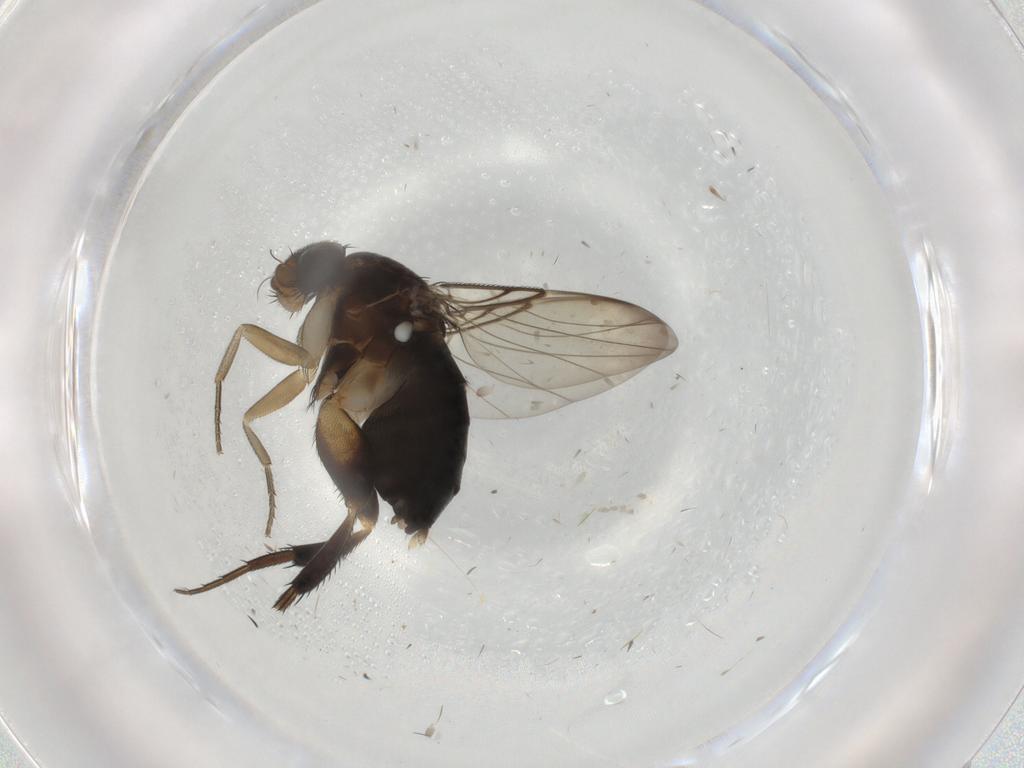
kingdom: Animalia
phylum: Arthropoda
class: Insecta
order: Diptera
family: Phoridae
